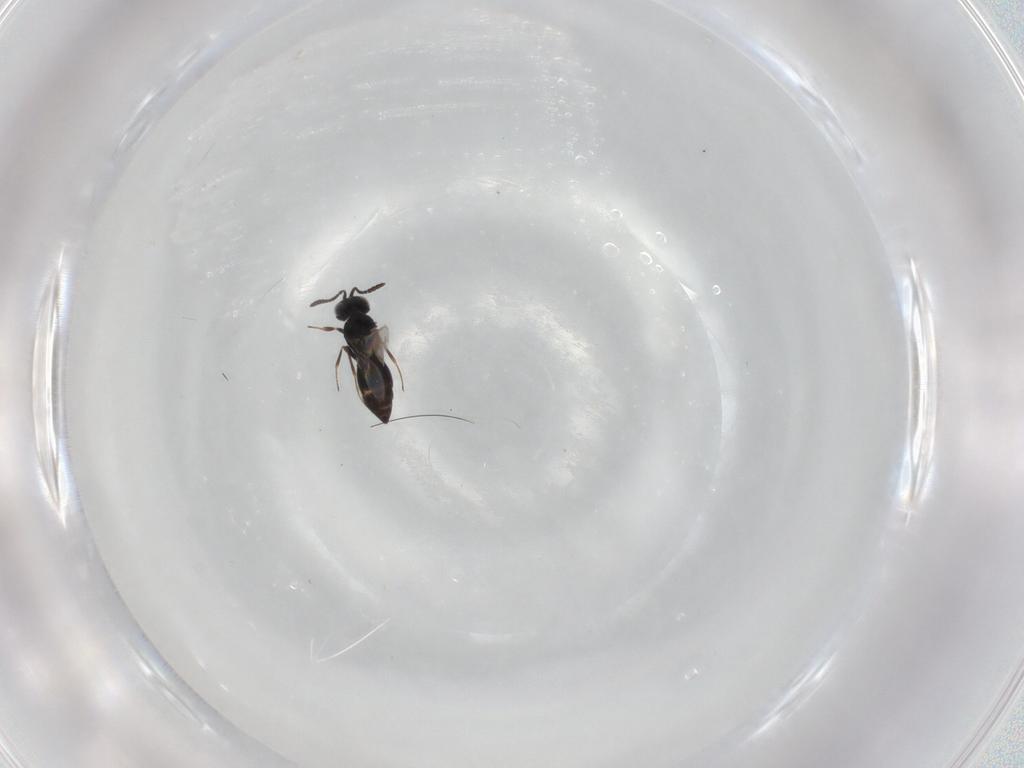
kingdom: Animalia
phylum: Arthropoda
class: Insecta
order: Hymenoptera
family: Scelionidae
